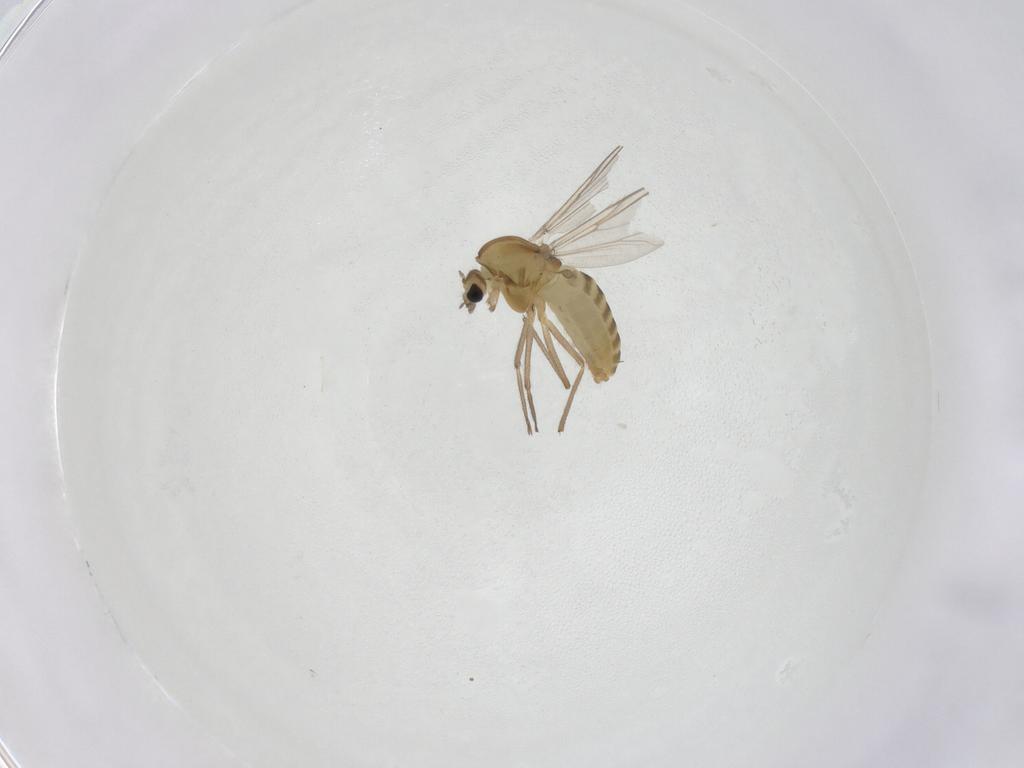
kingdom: Animalia
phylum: Arthropoda
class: Insecta
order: Diptera
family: Chironomidae
